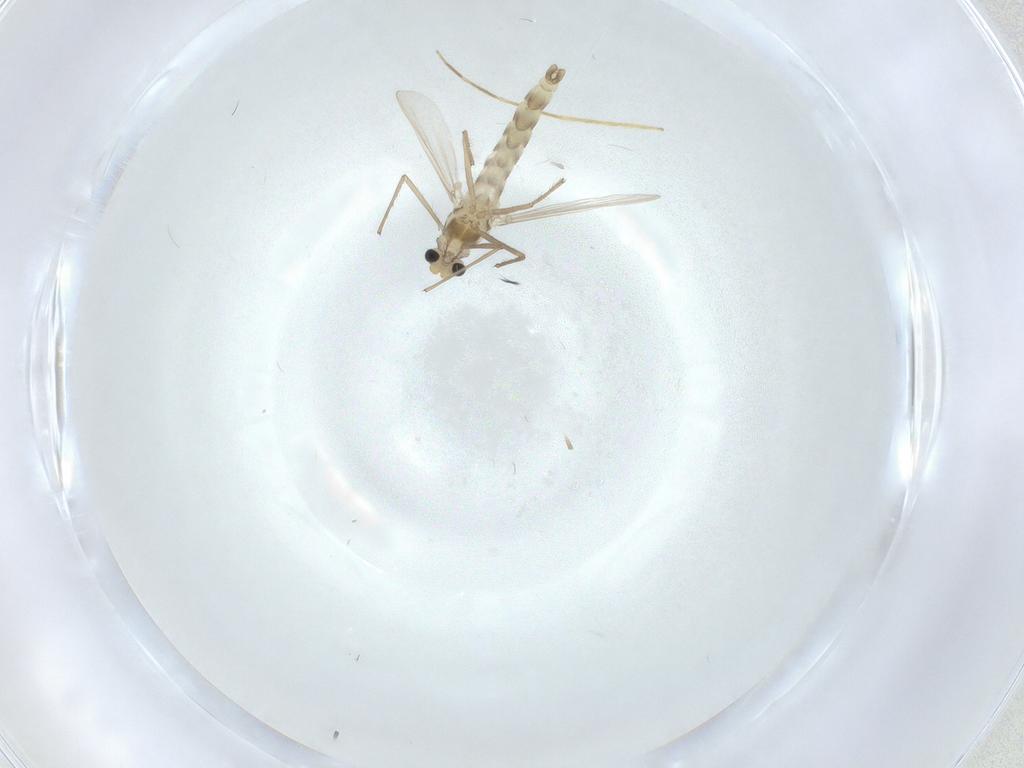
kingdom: Animalia
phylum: Arthropoda
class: Insecta
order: Diptera
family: Chironomidae
